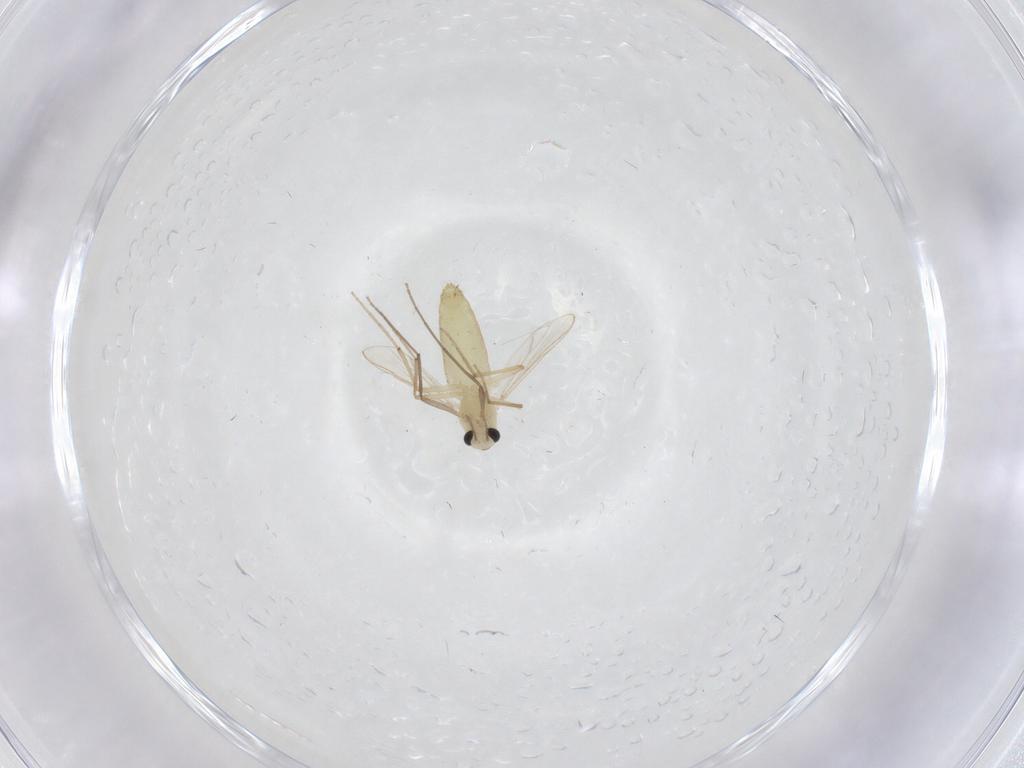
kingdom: Animalia
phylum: Arthropoda
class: Insecta
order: Diptera
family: Chironomidae
